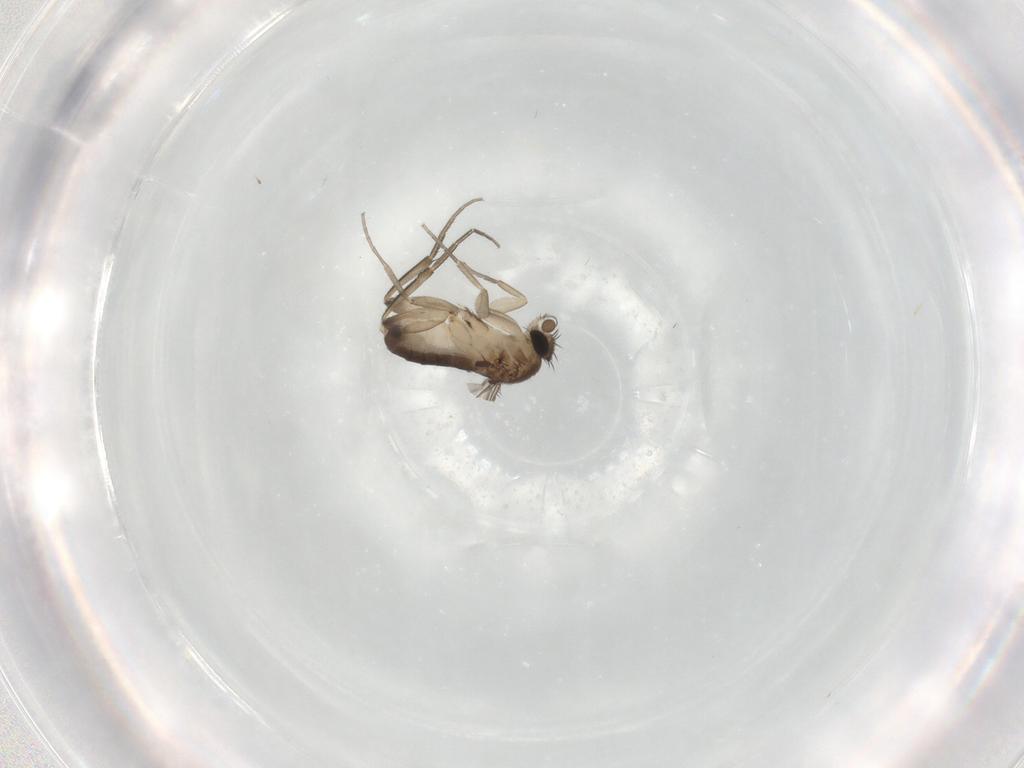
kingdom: Animalia
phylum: Arthropoda
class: Insecta
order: Diptera
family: Phoridae
